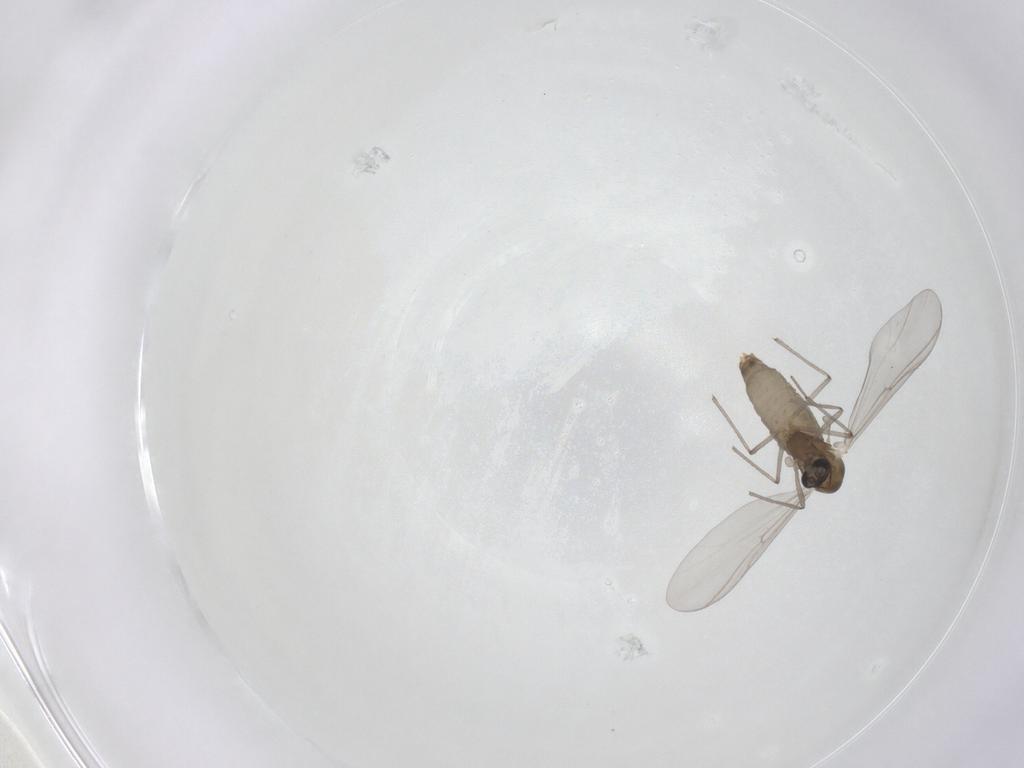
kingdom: Animalia
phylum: Arthropoda
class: Insecta
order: Diptera
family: Chironomidae
